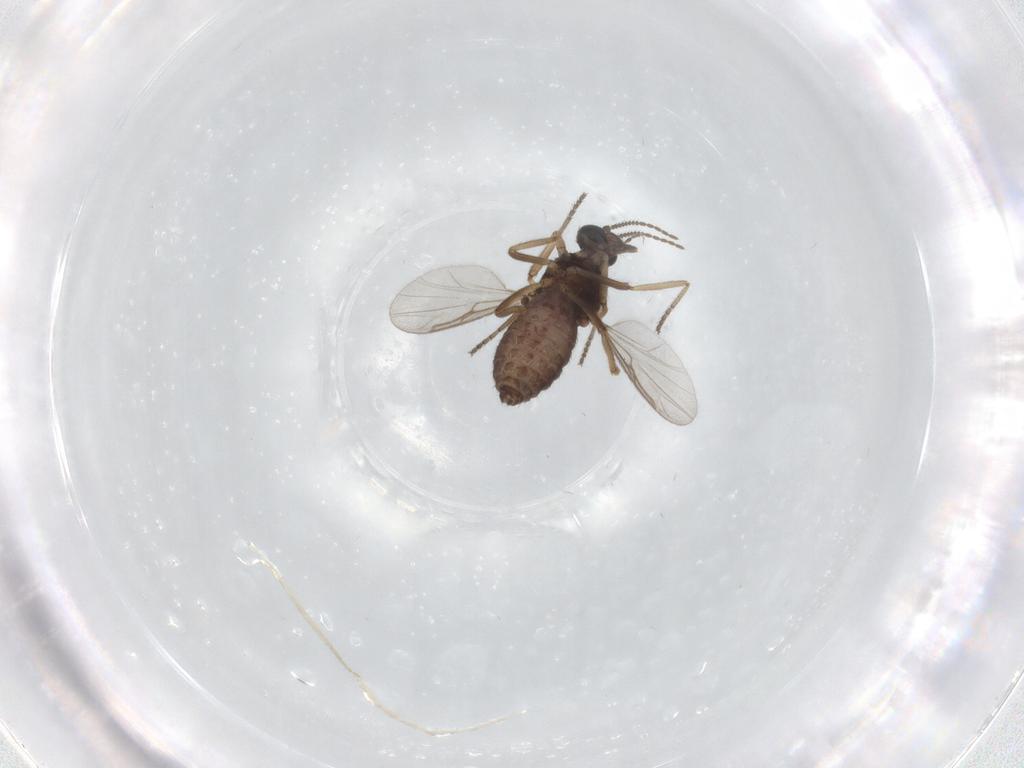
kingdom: Animalia
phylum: Arthropoda
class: Insecta
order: Diptera
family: Ceratopogonidae
